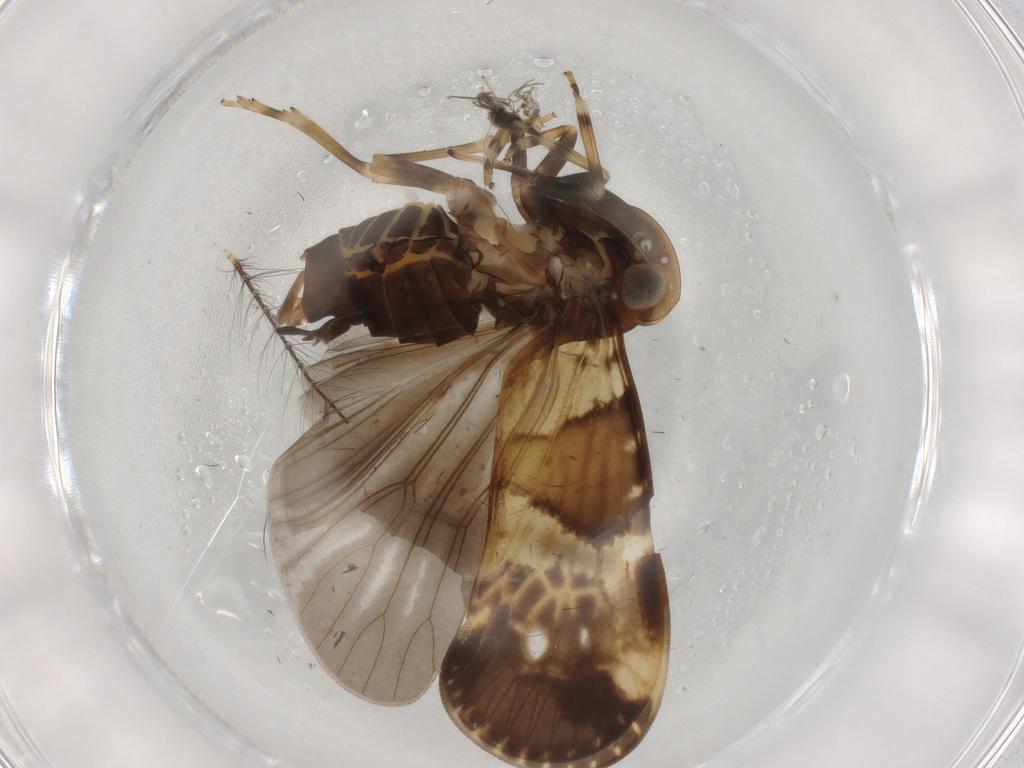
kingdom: Animalia
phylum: Arthropoda
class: Insecta
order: Hemiptera
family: Cixiidae
